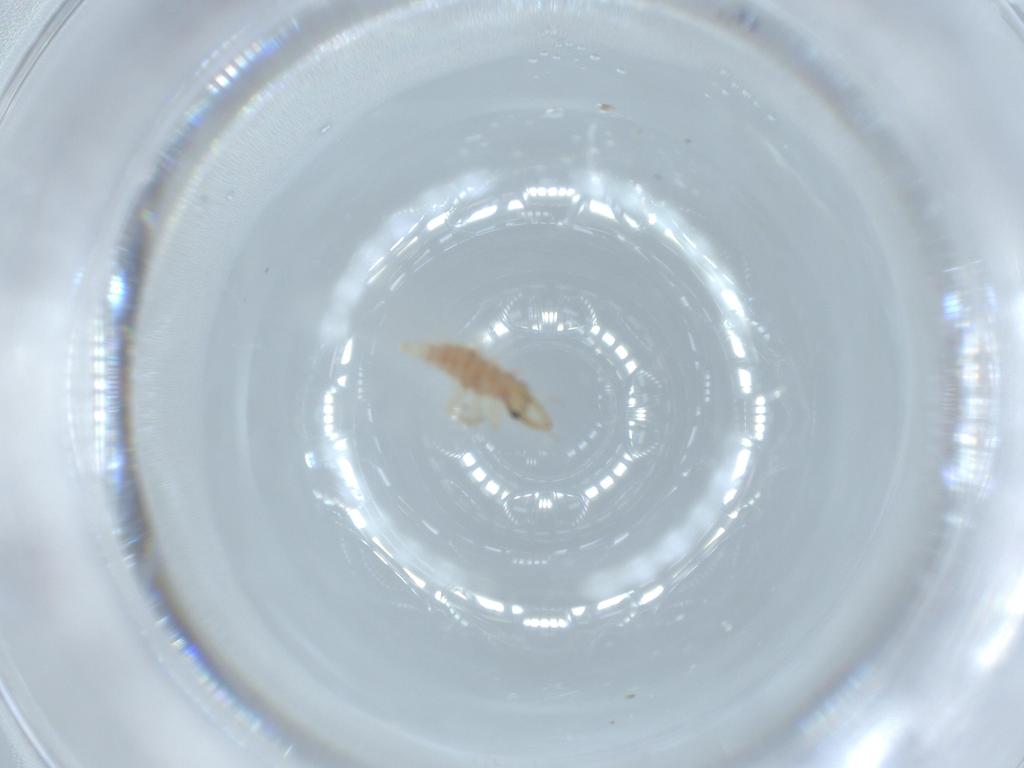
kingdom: Animalia
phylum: Arthropoda
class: Insecta
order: Neuroptera
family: Chrysopidae
